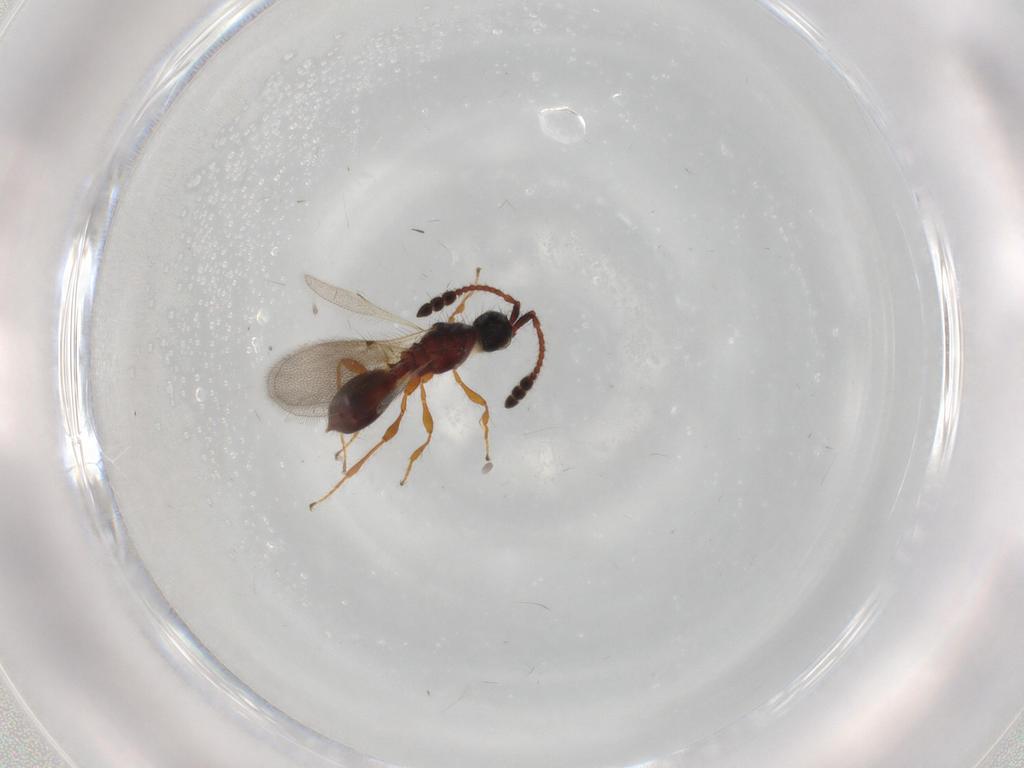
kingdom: Animalia
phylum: Arthropoda
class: Insecta
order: Hymenoptera
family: Diapriidae
